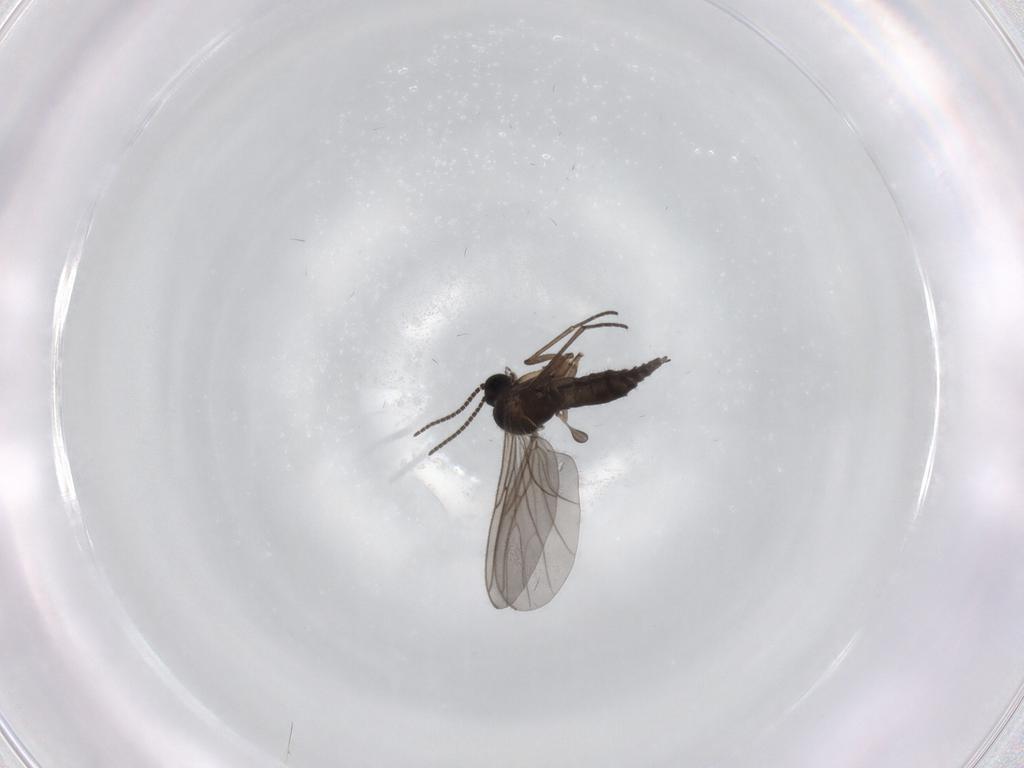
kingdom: Animalia
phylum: Arthropoda
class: Insecta
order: Diptera
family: Sciaridae
